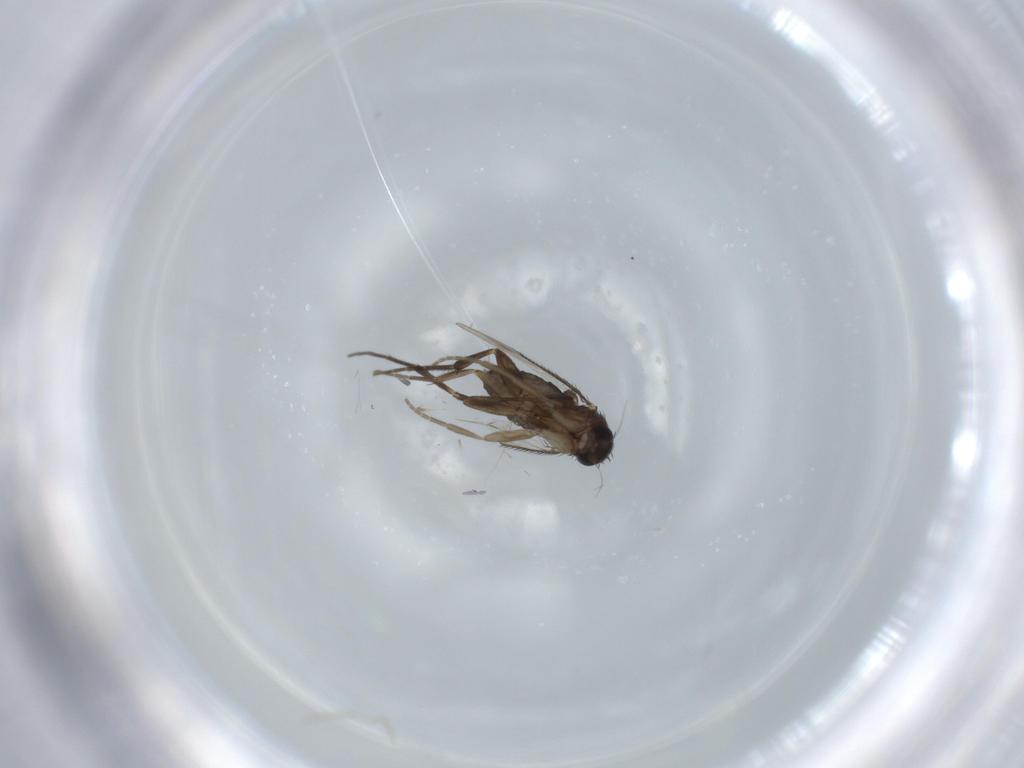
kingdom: Animalia
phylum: Arthropoda
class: Insecta
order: Diptera
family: Phoridae
